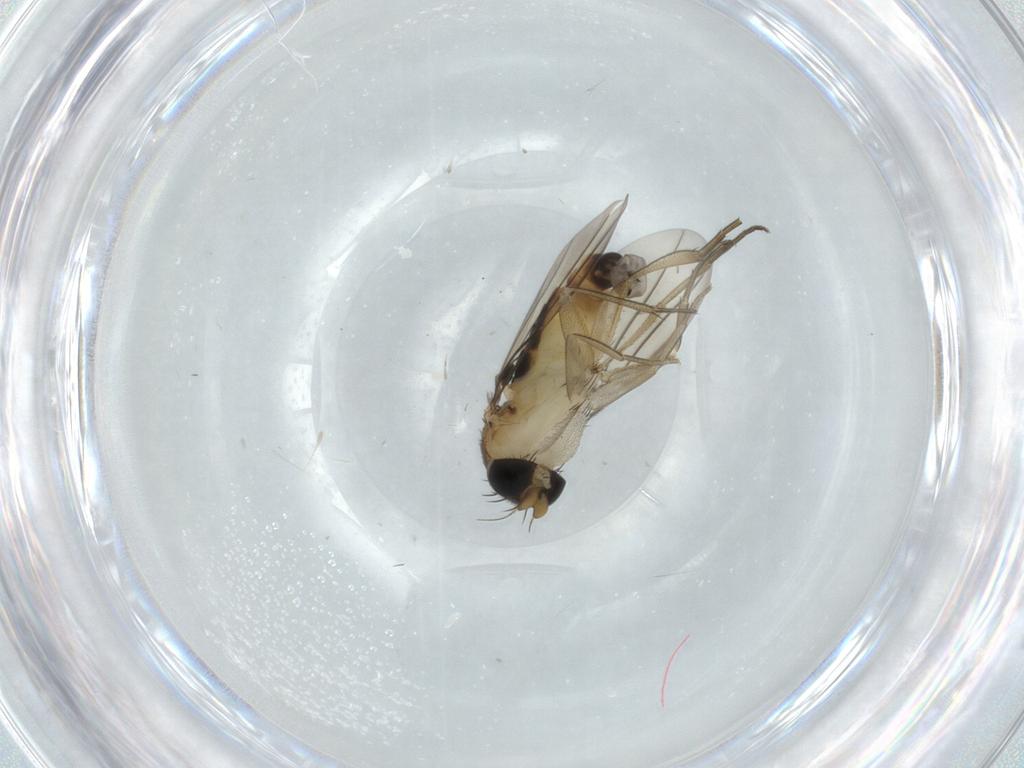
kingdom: Animalia
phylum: Arthropoda
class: Insecta
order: Diptera
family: Phoridae
